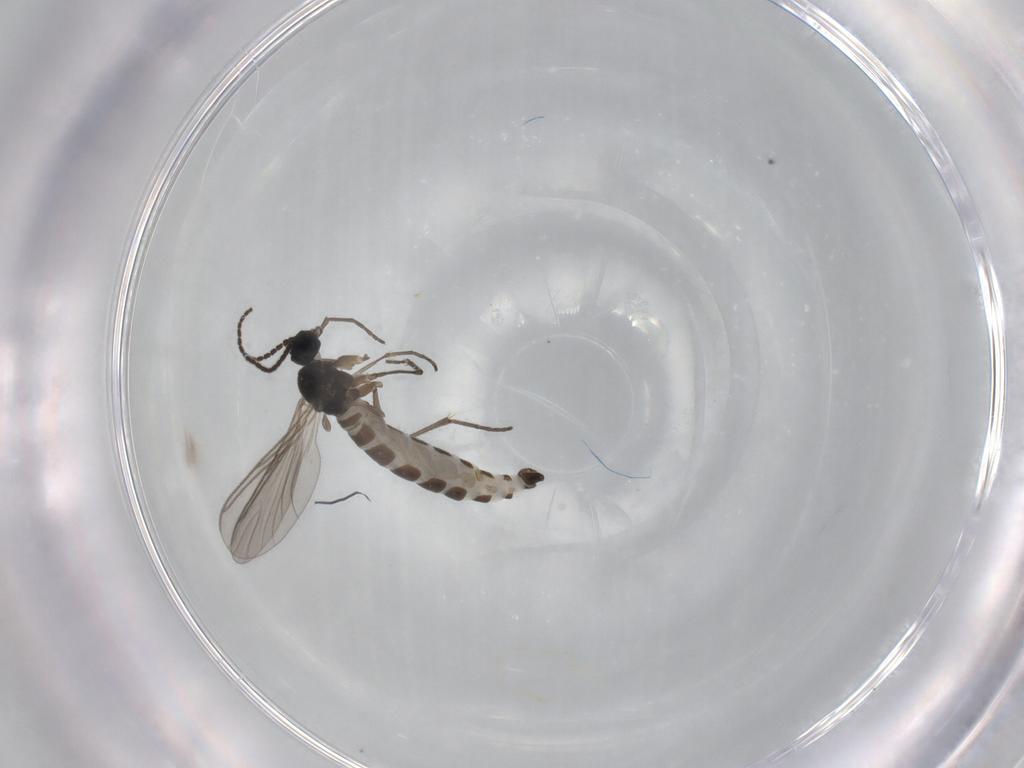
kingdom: Animalia
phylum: Arthropoda
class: Insecta
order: Diptera
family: Sciaridae
